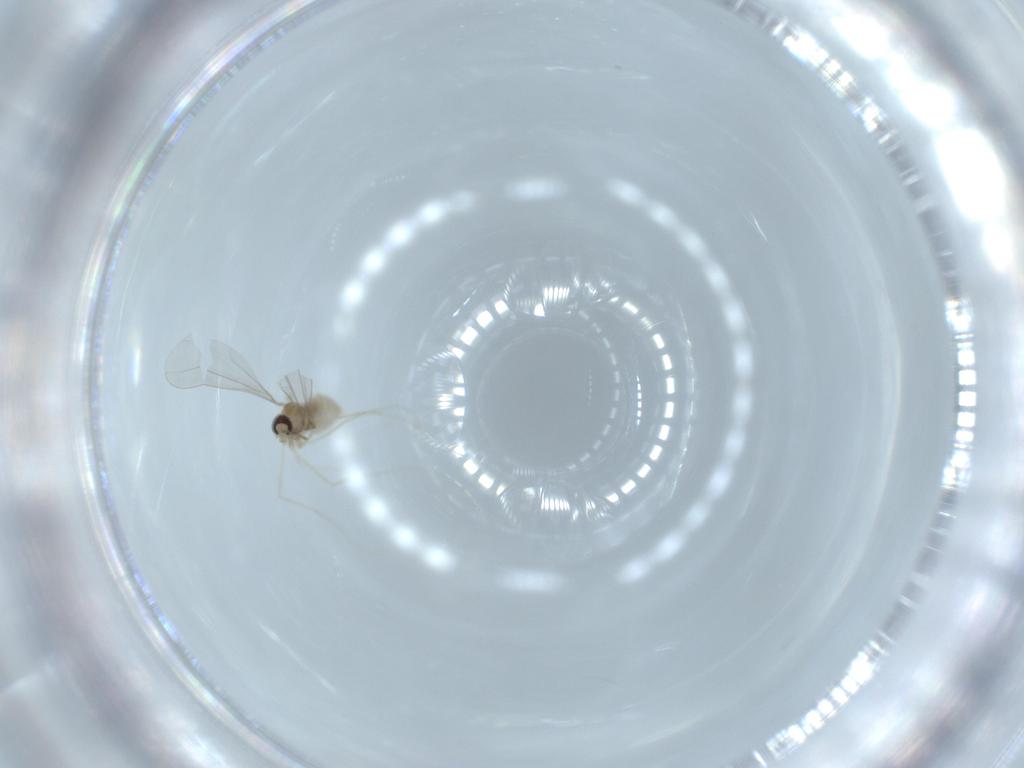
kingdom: Animalia
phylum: Arthropoda
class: Insecta
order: Diptera
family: Cecidomyiidae
